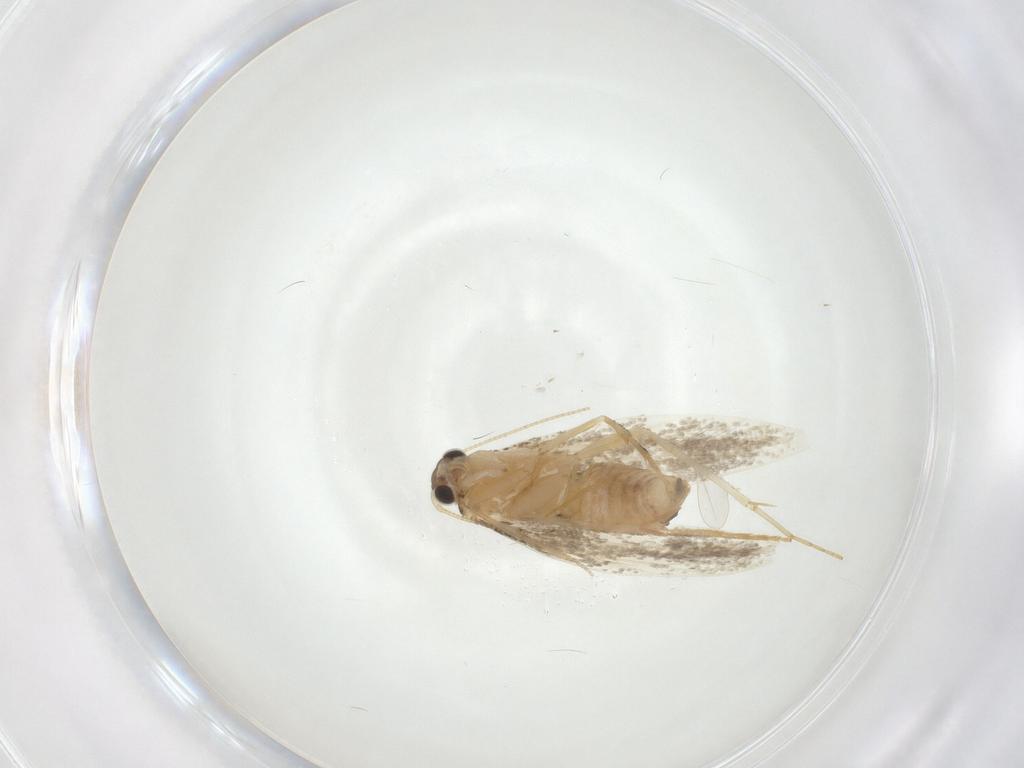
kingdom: Animalia
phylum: Arthropoda
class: Insecta
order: Lepidoptera
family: Tineidae
